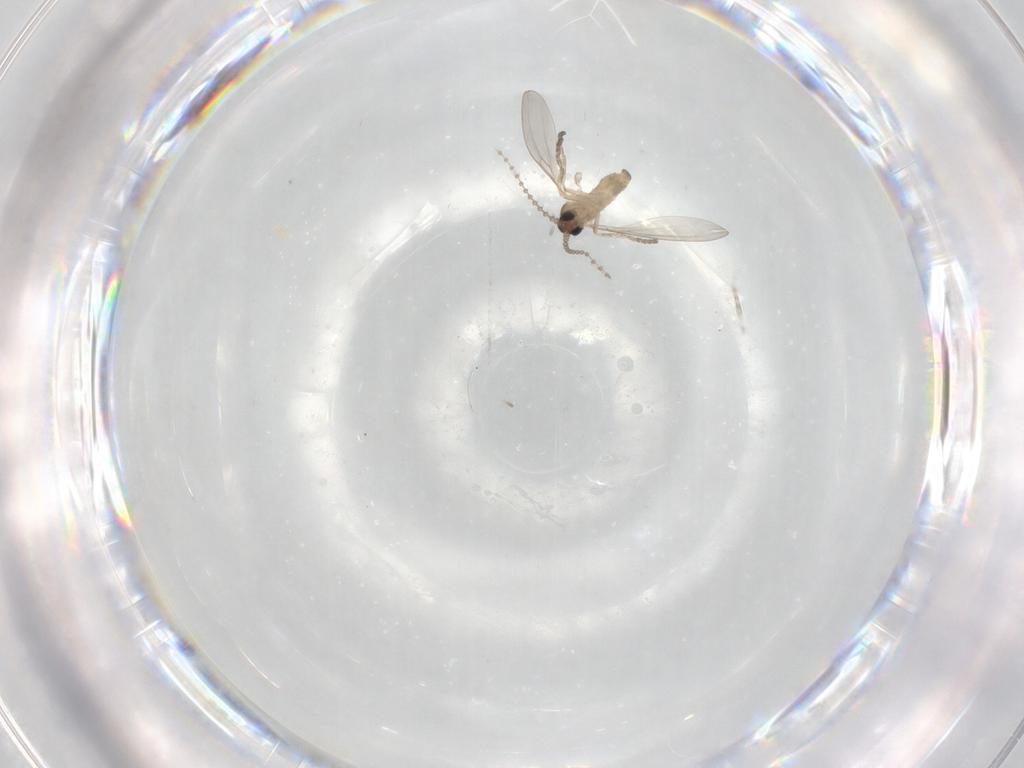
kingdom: Animalia
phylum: Arthropoda
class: Insecta
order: Diptera
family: Cecidomyiidae
